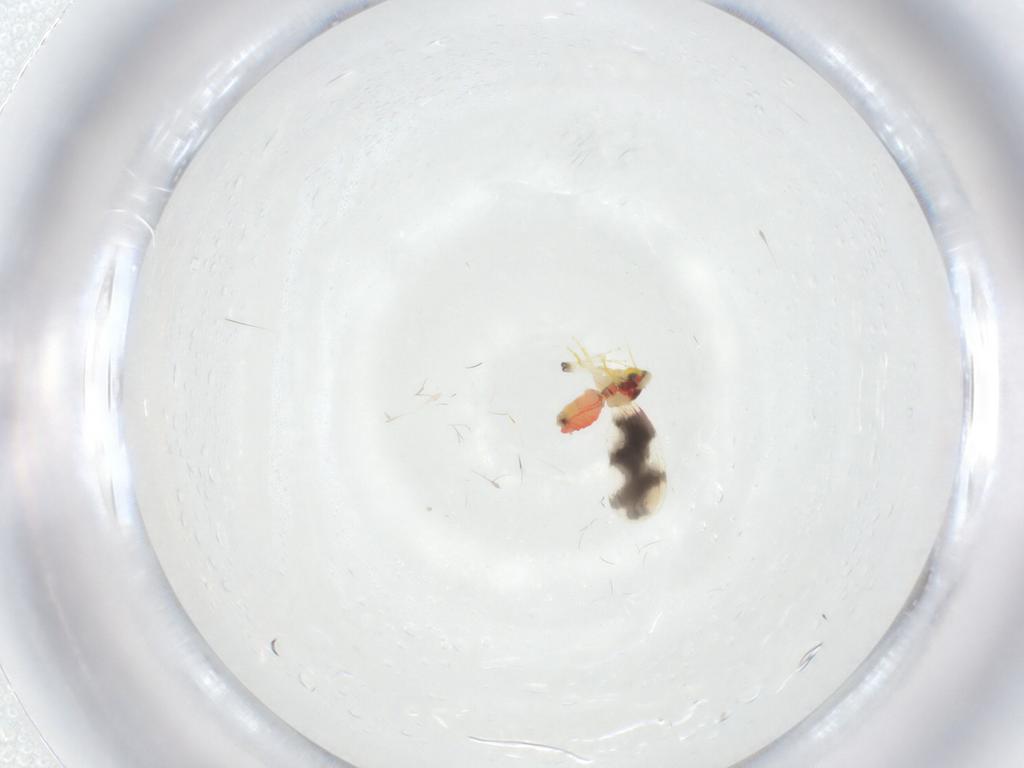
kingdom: Animalia
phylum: Arthropoda
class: Insecta
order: Hemiptera
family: Aleyrodidae
